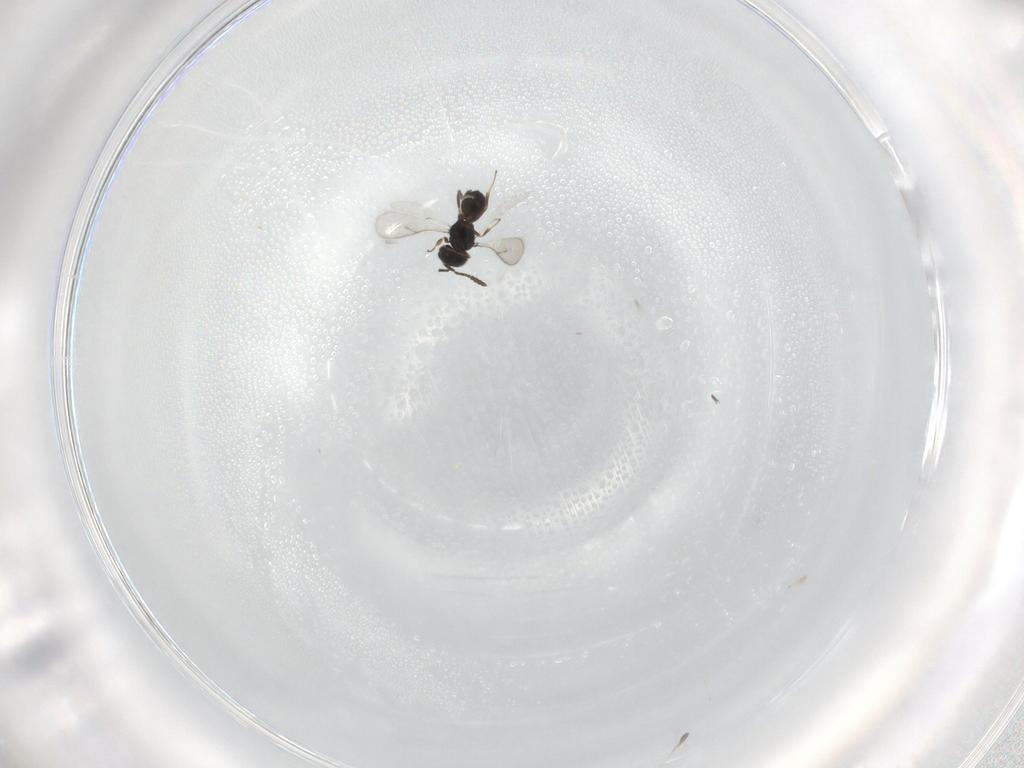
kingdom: Animalia
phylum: Arthropoda
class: Insecta
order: Hymenoptera
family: Scelionidae
